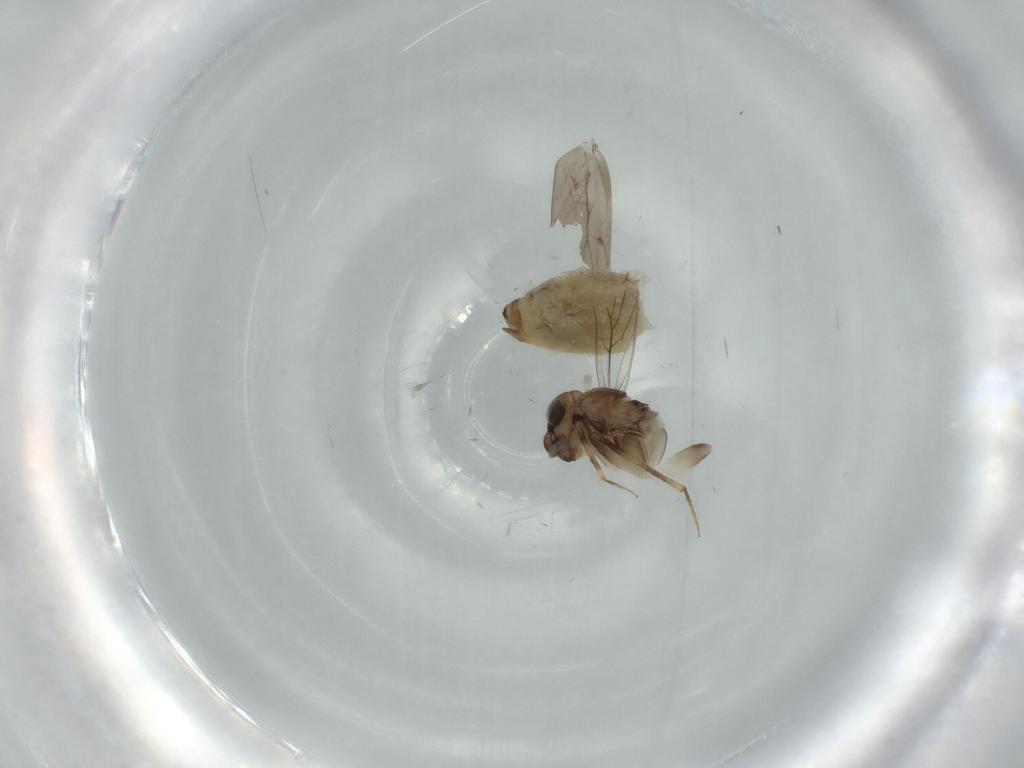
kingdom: Animalia
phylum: Arthropoda
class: Insecta
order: Psocodea
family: Lepidopsocidae
